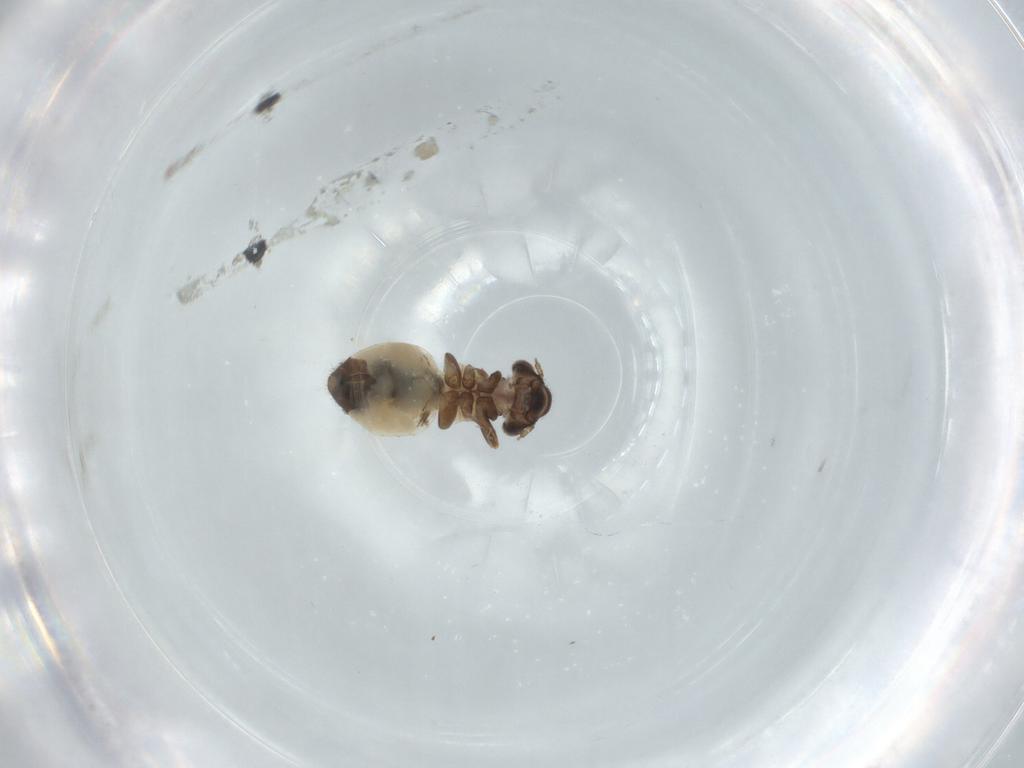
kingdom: Animalia
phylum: Arthropoda
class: Insecta
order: Psocodea
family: Ectopsocidae
